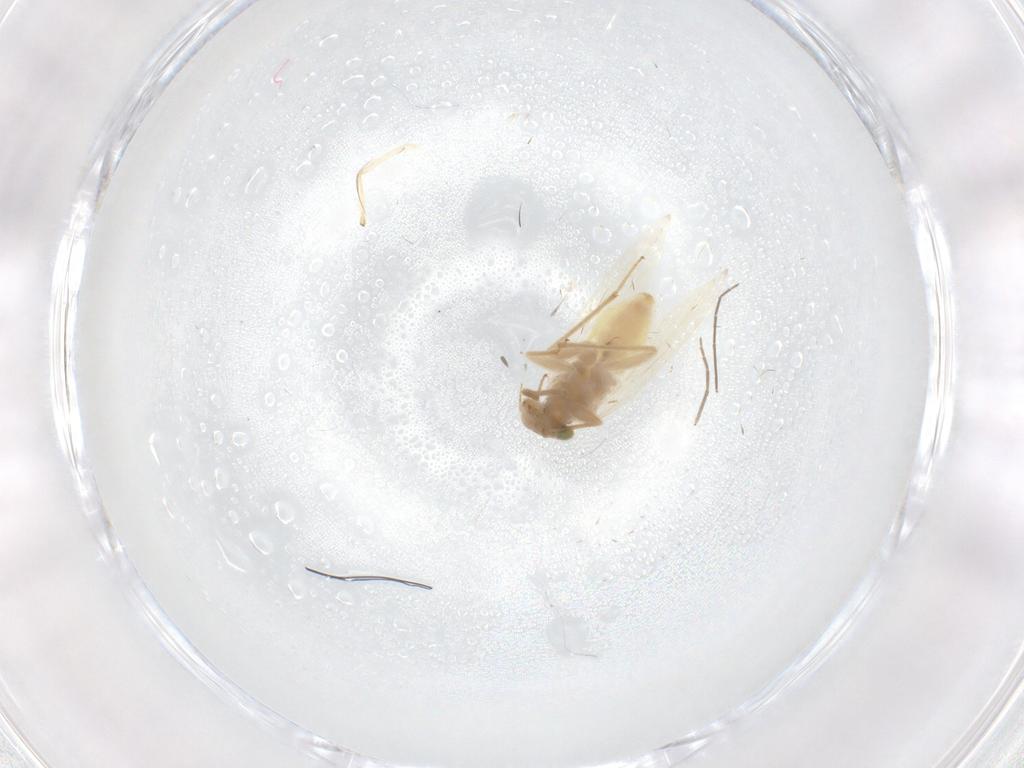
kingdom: Animalia
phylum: Arthropoda
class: Insecta
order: Psocodea
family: Lepidopsocidae
